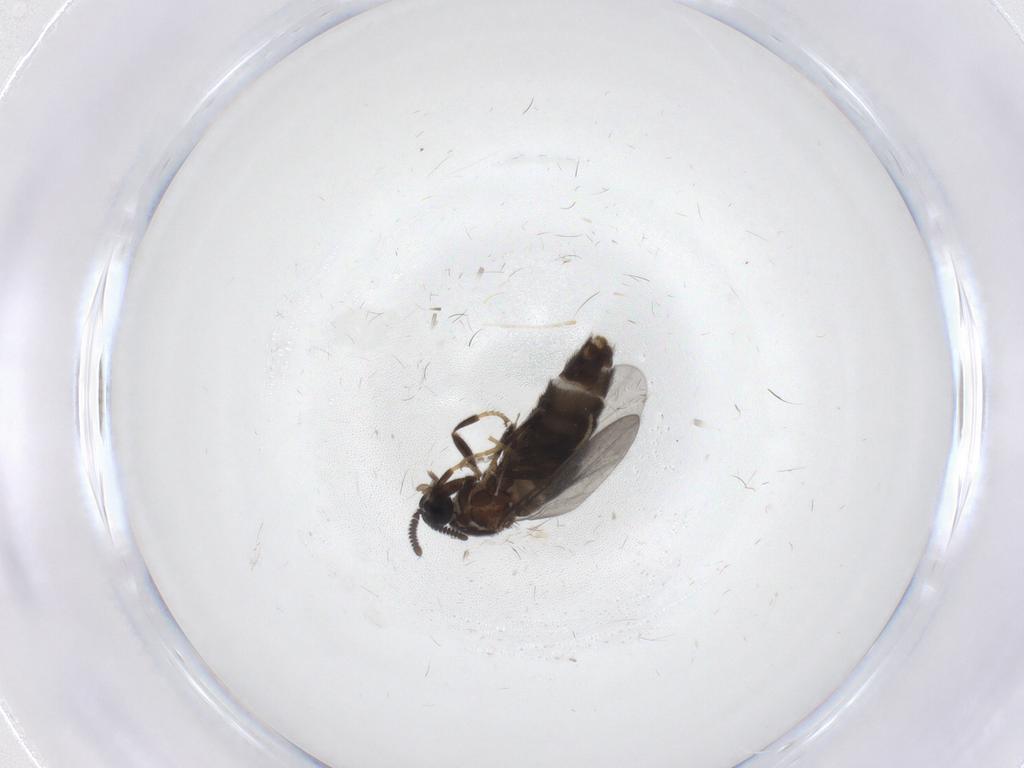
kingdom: Animalia
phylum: Arthropoda
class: Insecta
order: Diptera
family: Scatopsidae
